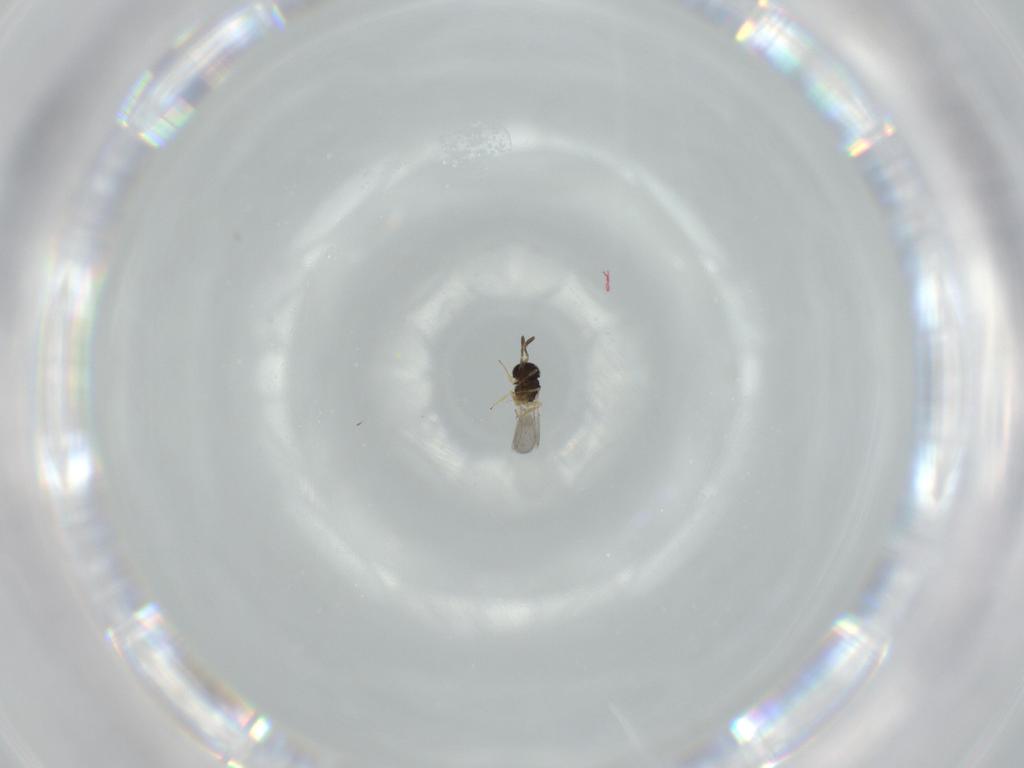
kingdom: Animalia
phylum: Arthropoda
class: Insecta
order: Hymenoptera
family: Scelionidae
